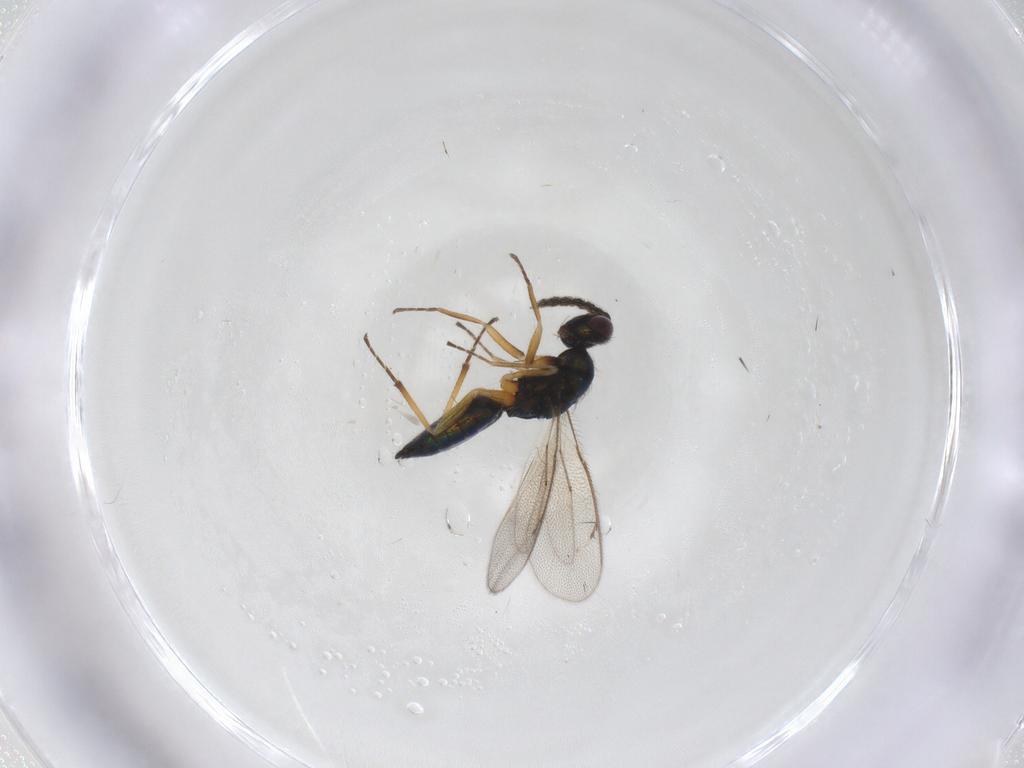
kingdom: Animalia
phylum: Arthropoda
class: Insecta
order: Hymenoptera
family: Eulophidae
